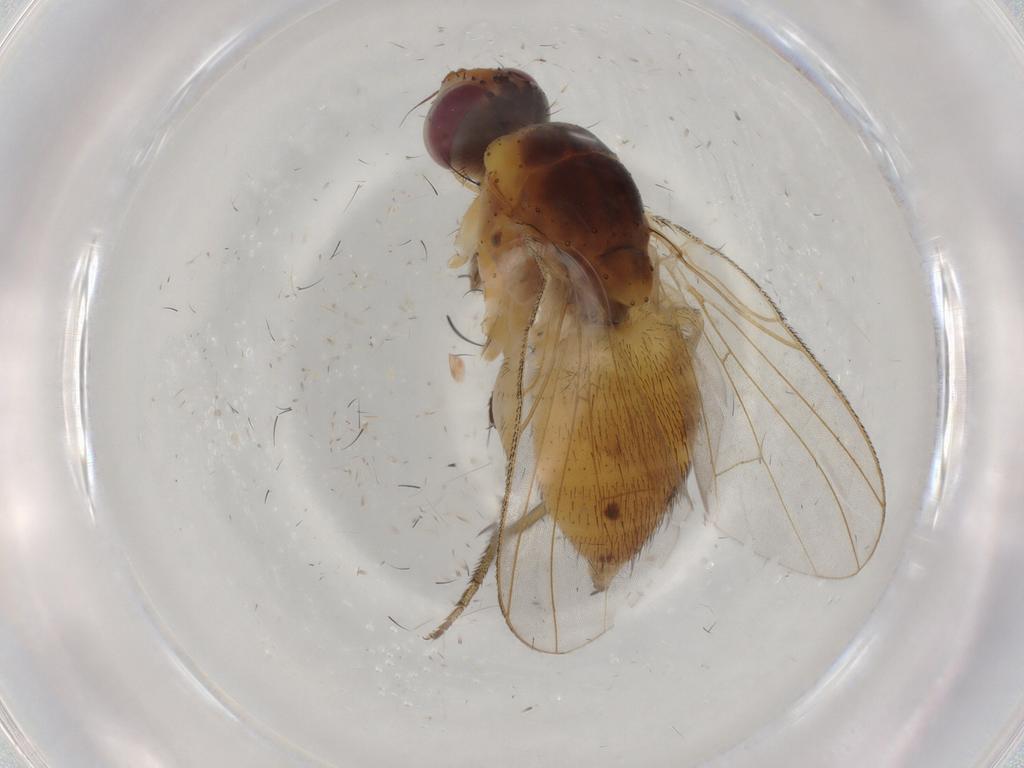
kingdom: Animalia
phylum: Arthropoda
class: Insecta
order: Diptera
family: Muscidae
